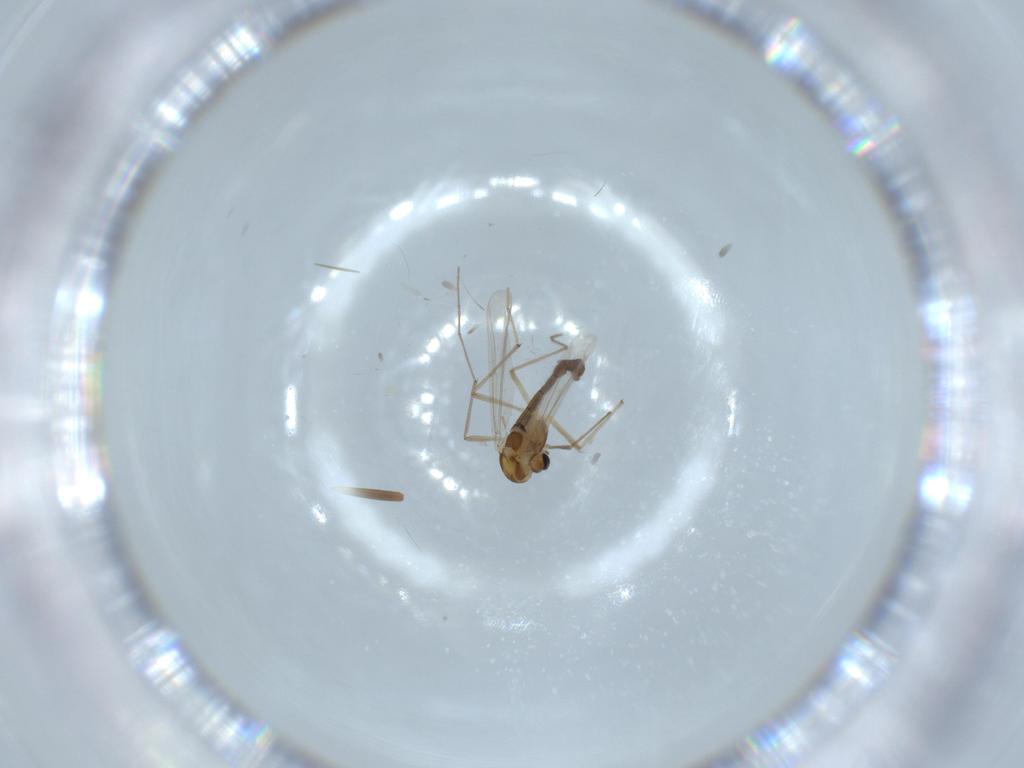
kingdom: Animalia
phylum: Arthropoda
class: Insecta
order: Diptera
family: Chironomidae
